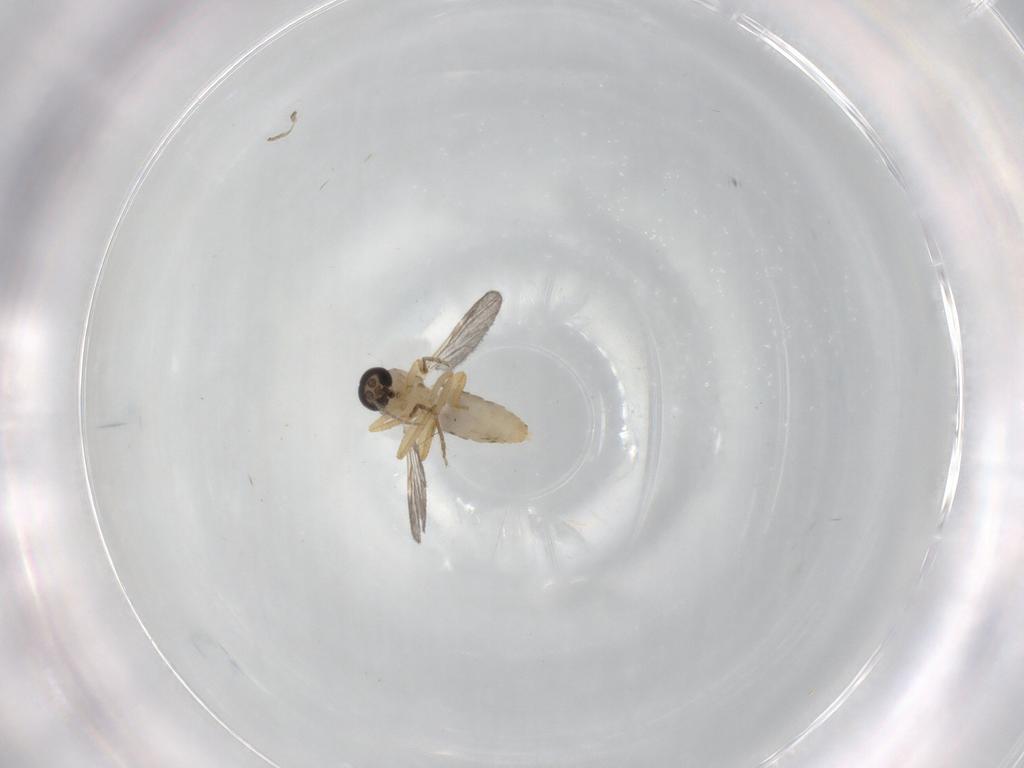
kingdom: Animalia
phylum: Arthropoda
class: Insecta
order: Diptera
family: Ceratopogonidae
